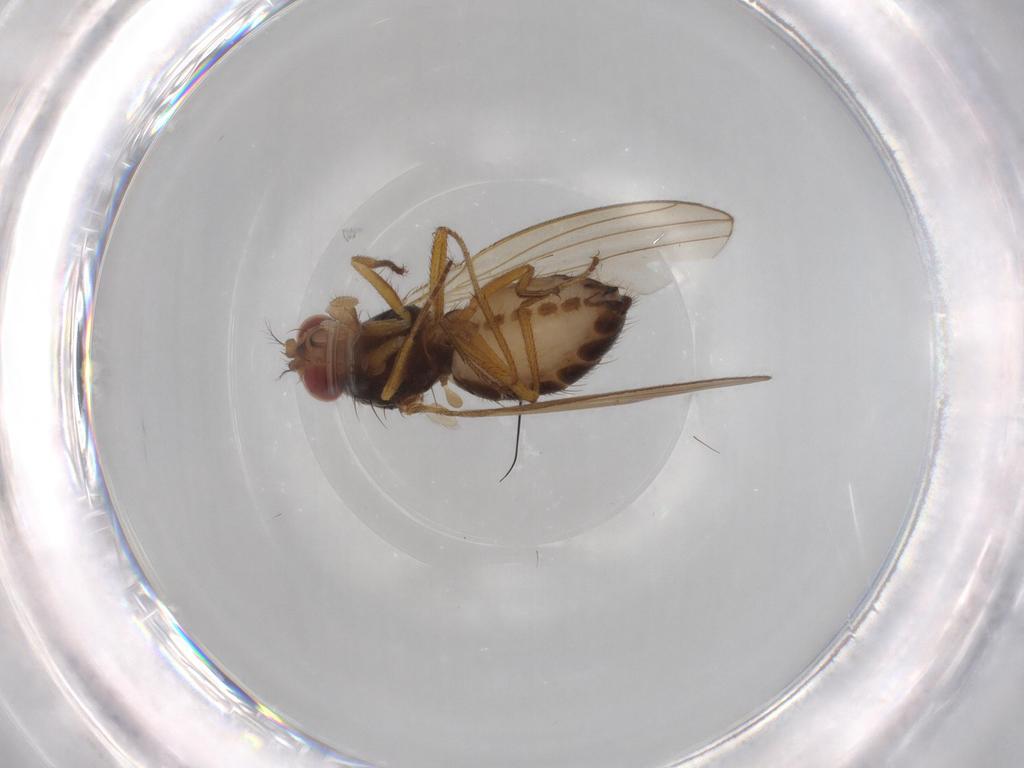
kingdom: Animalia
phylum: Arthropoda
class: Insecta
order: Diptera
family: Drosophilidae
